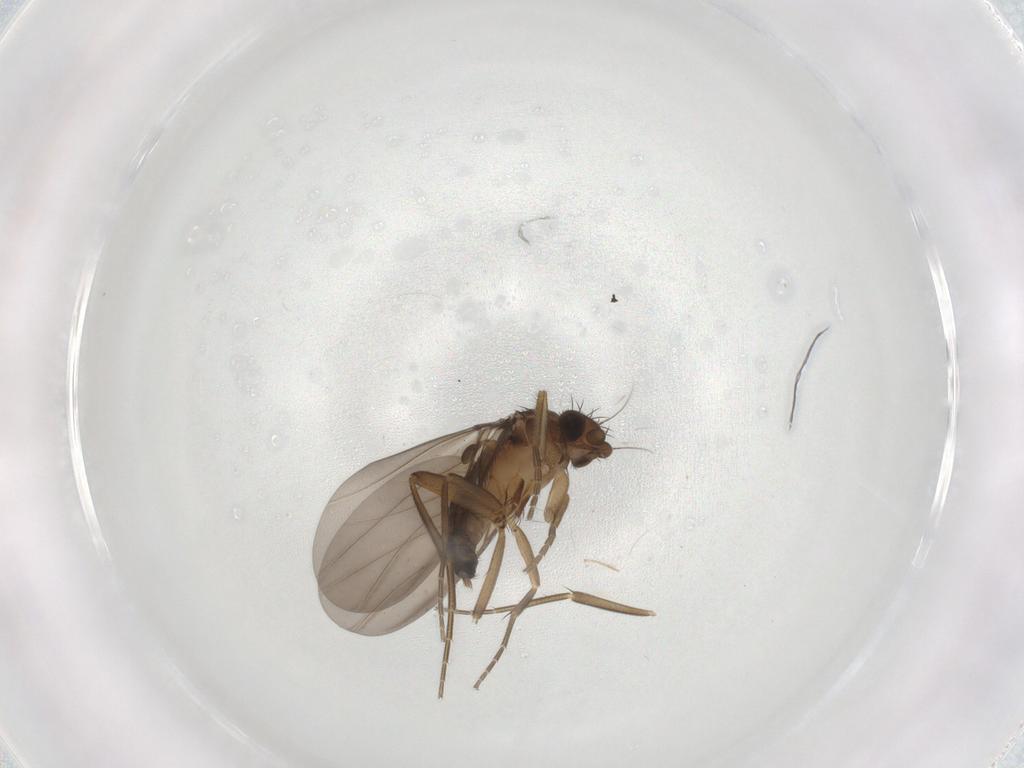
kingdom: Animalia
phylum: Arthropoda
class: Insecta
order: Diptera
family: Phoridae
